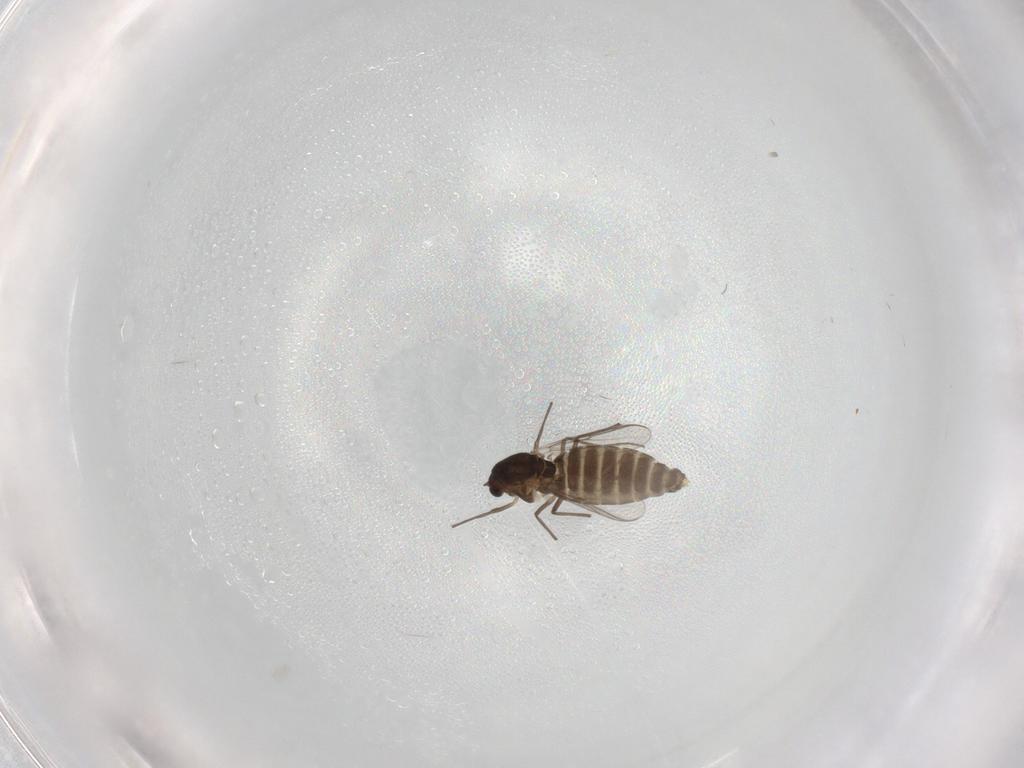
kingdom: Animalia
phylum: Arthropoda
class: Insecta
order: Diptera
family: Chironomidae
